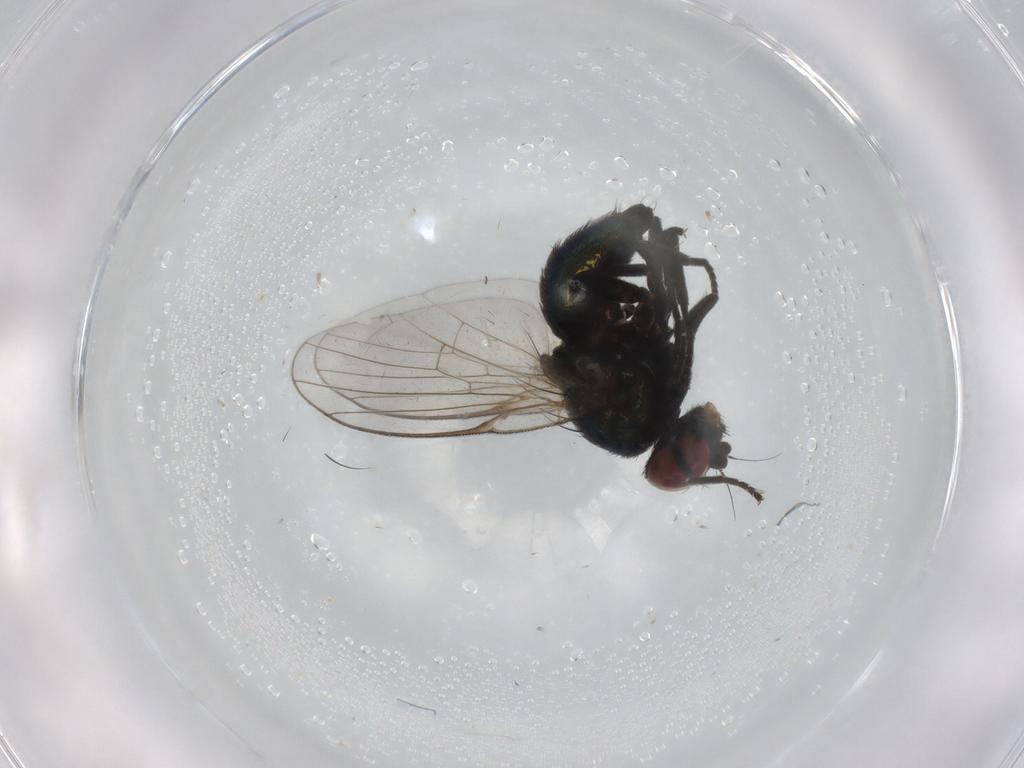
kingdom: Animalia
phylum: Arthropoda
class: Insecta
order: Diptera
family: Ceratopogonidae
